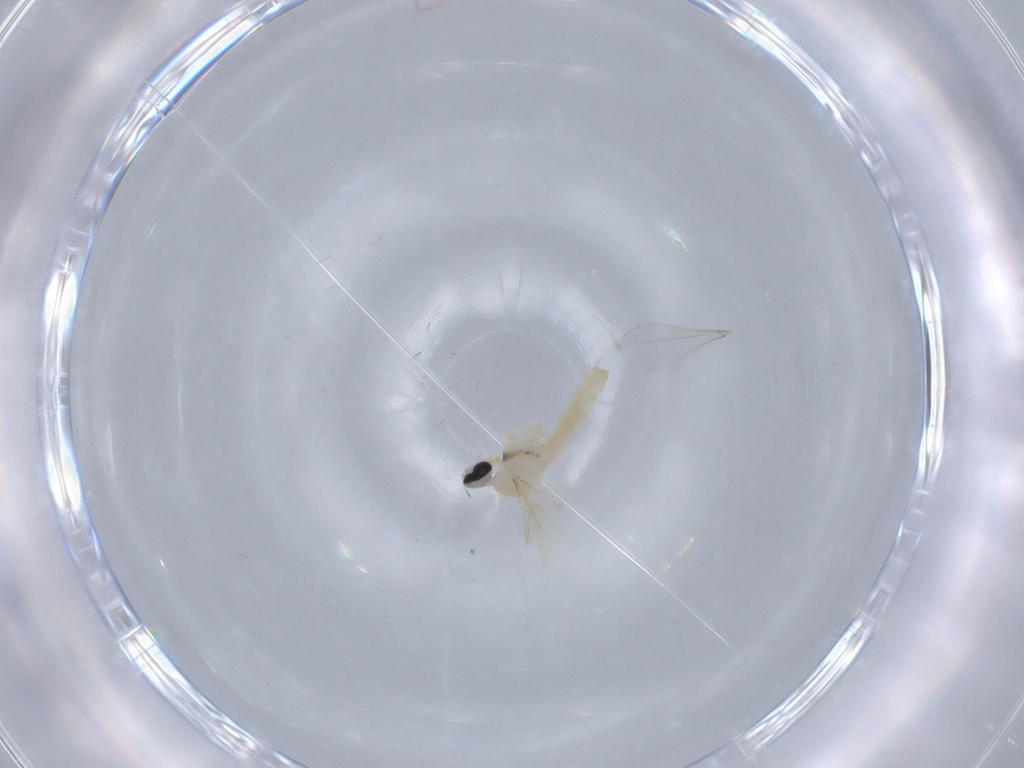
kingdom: Animalia
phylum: Arthropoda
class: Insecta
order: Diptera
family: Cecidomyiidae
